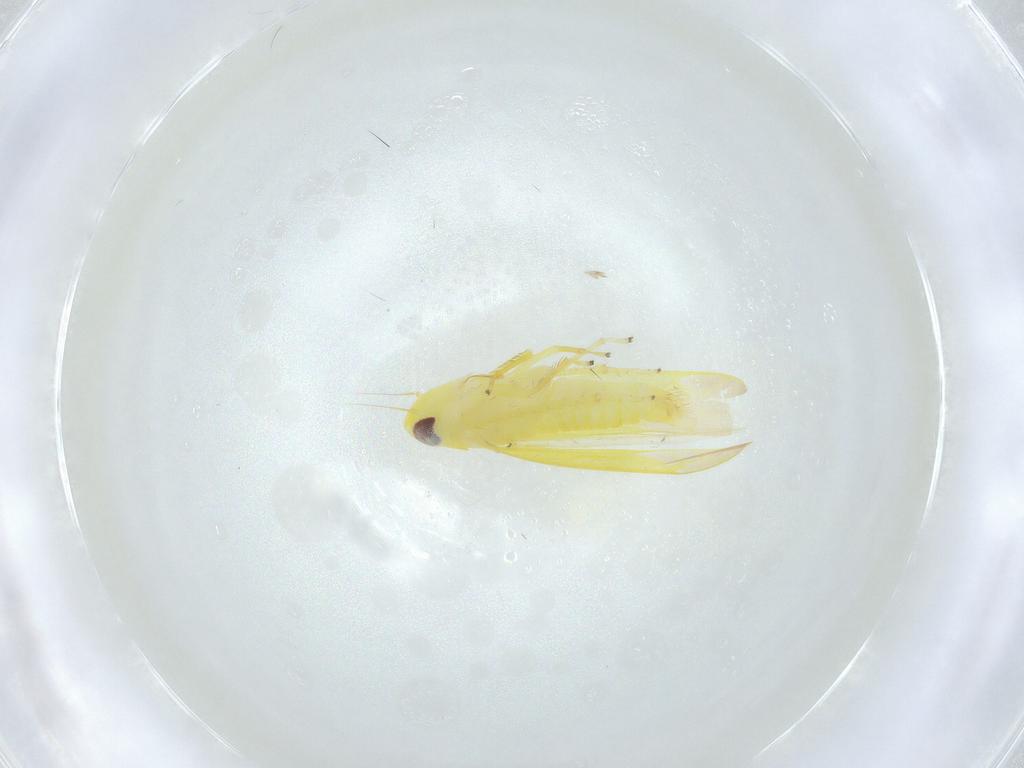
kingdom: Animalia
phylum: Arthropoda
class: Insecta
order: Hemiptera
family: Cicadellidae
